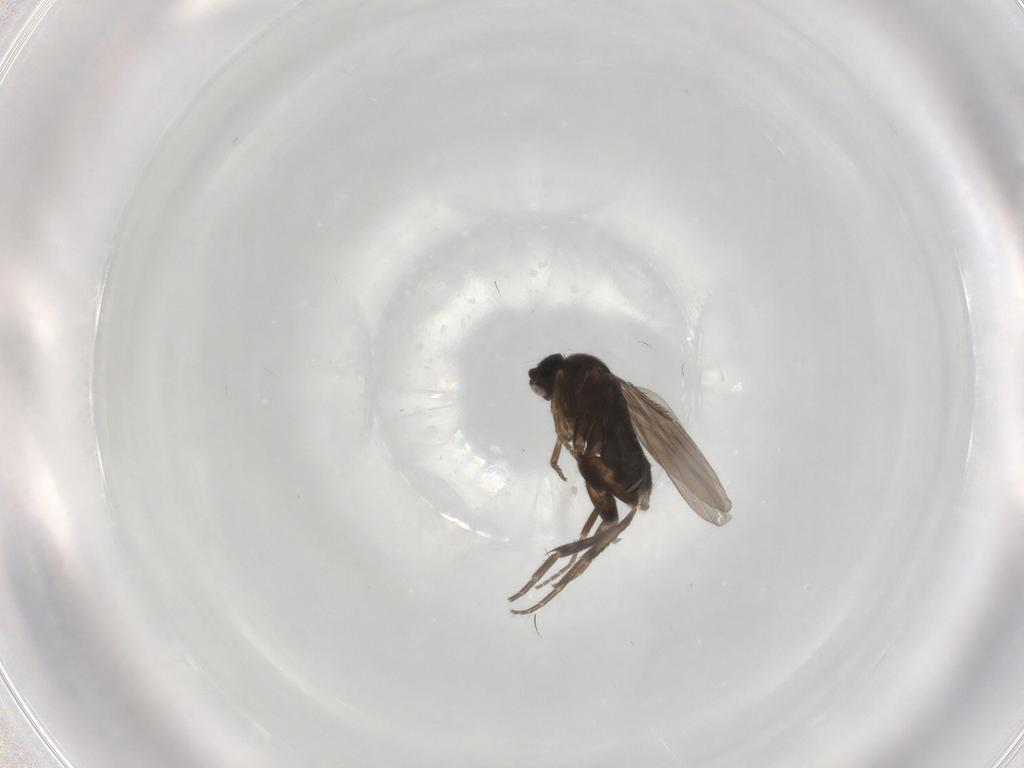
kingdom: Animalia
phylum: Arthropoda
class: Insecta
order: Diptera
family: Phoridae
